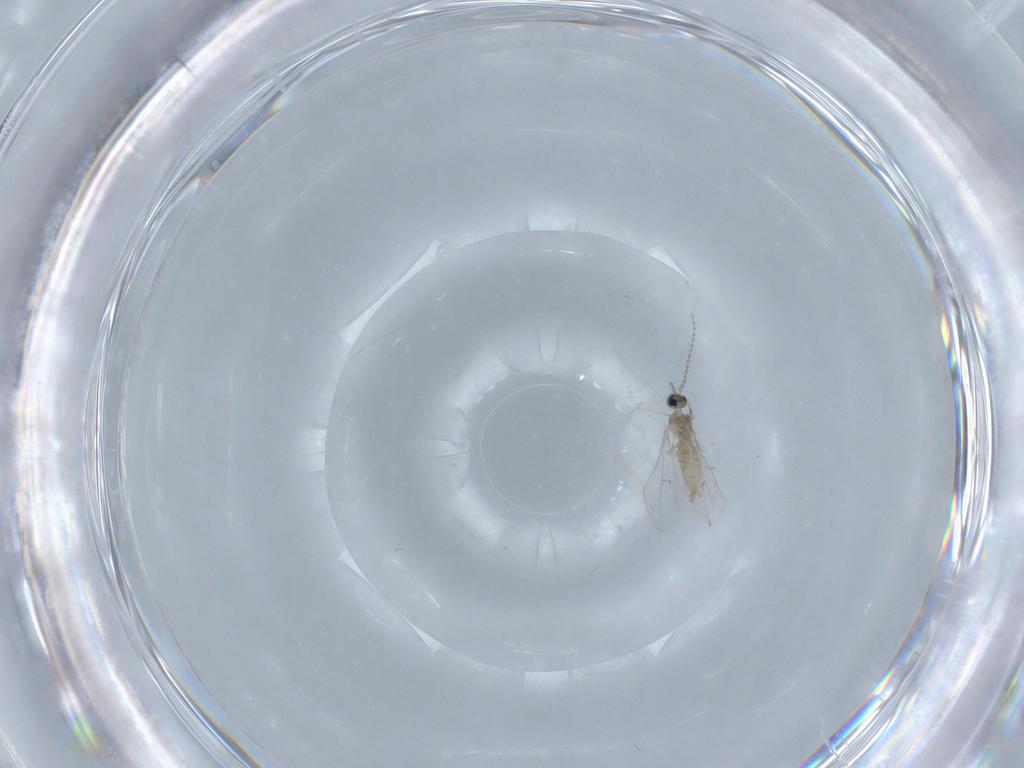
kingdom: Animalia
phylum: Arthropoda
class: Insecta
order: Diptera
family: Cecidomyiidae
